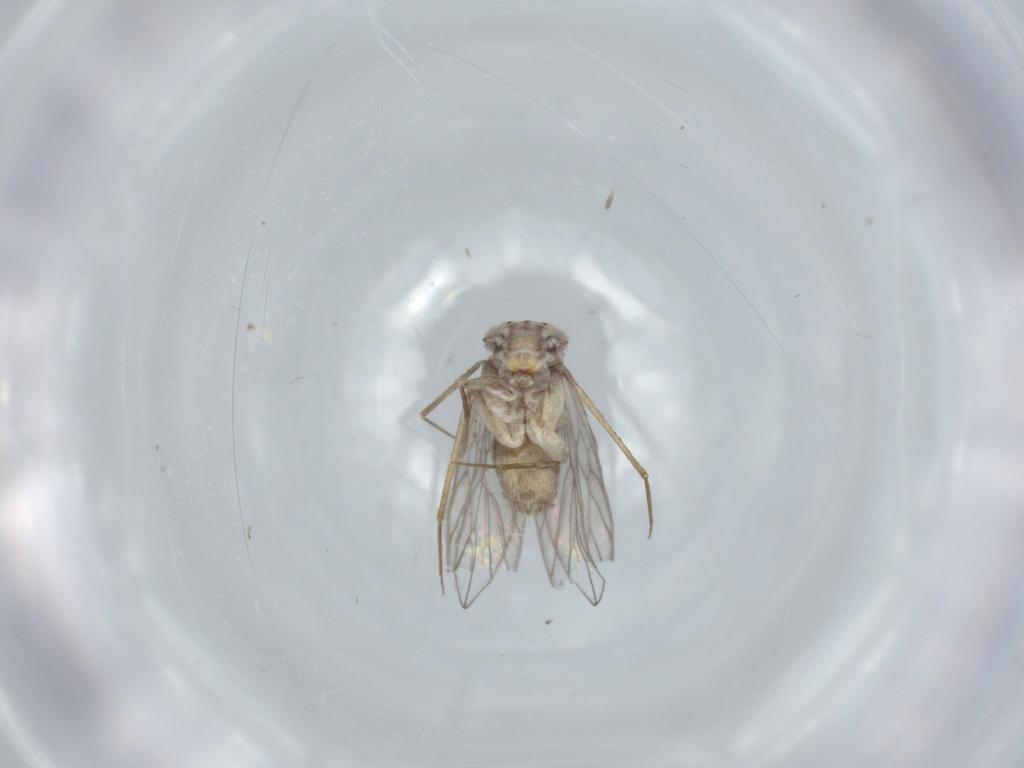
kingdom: Animalia
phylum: Arthropoda
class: Insecta
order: Psocodea
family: Lepidopsocidae
